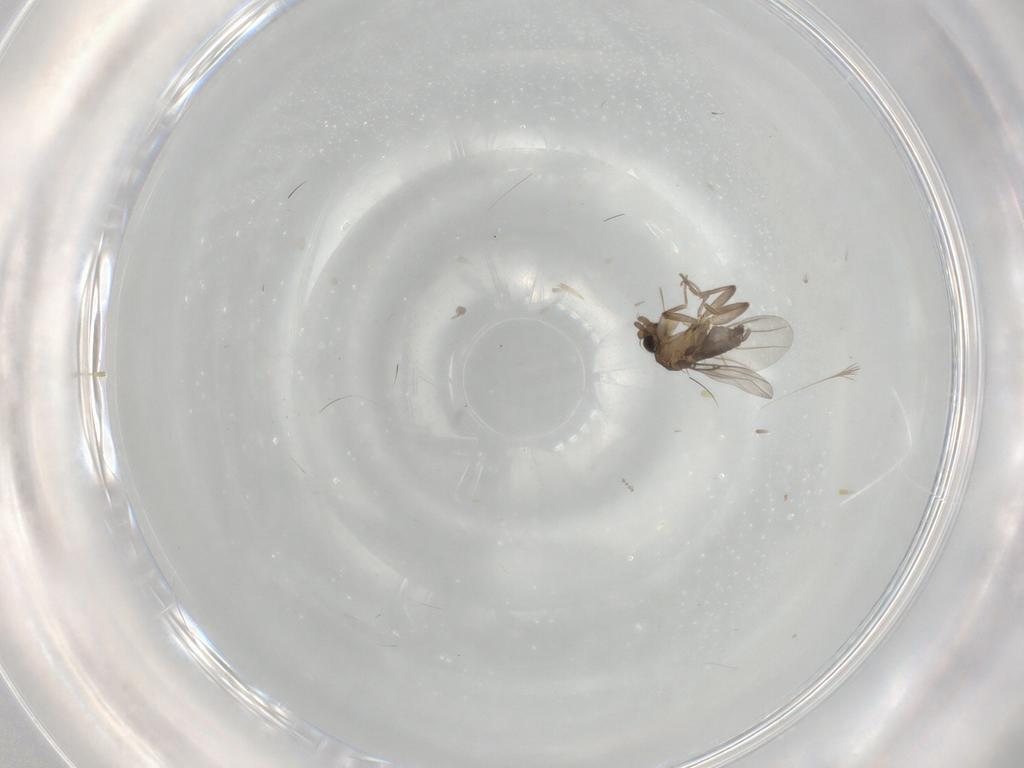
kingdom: Animalia
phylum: Arthropoda
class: Insecta
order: Diptera
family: Phoridae
